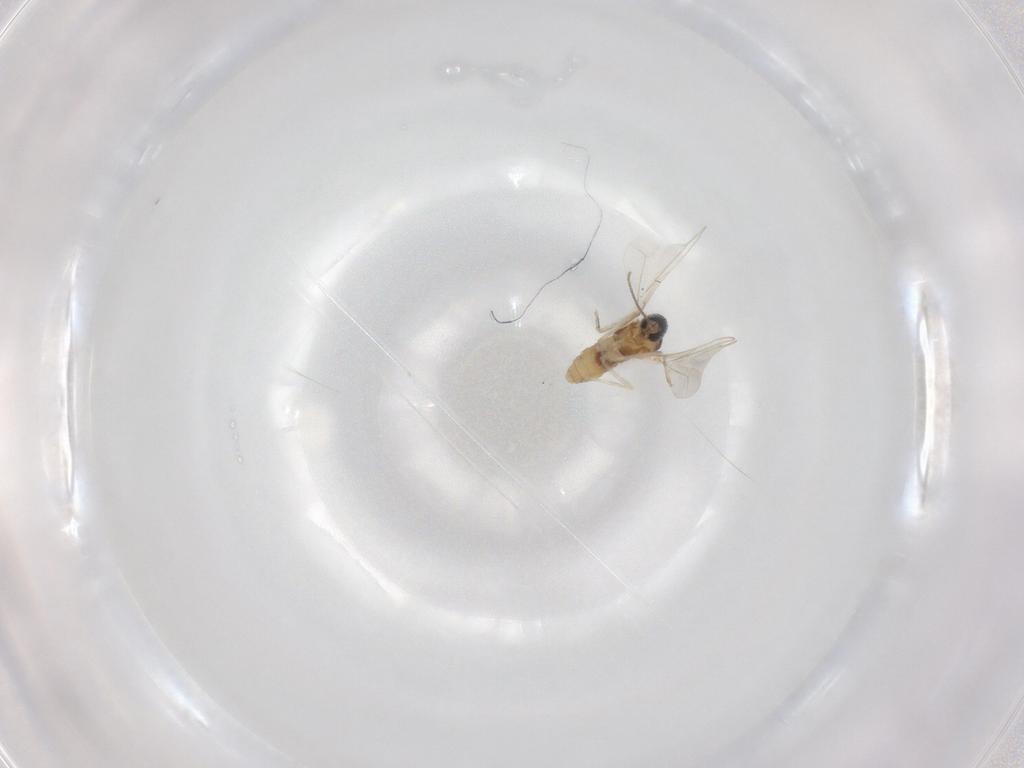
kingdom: Animalia
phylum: Arthropoda
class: Insecta
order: Diptera
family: Cecidomyiidae
